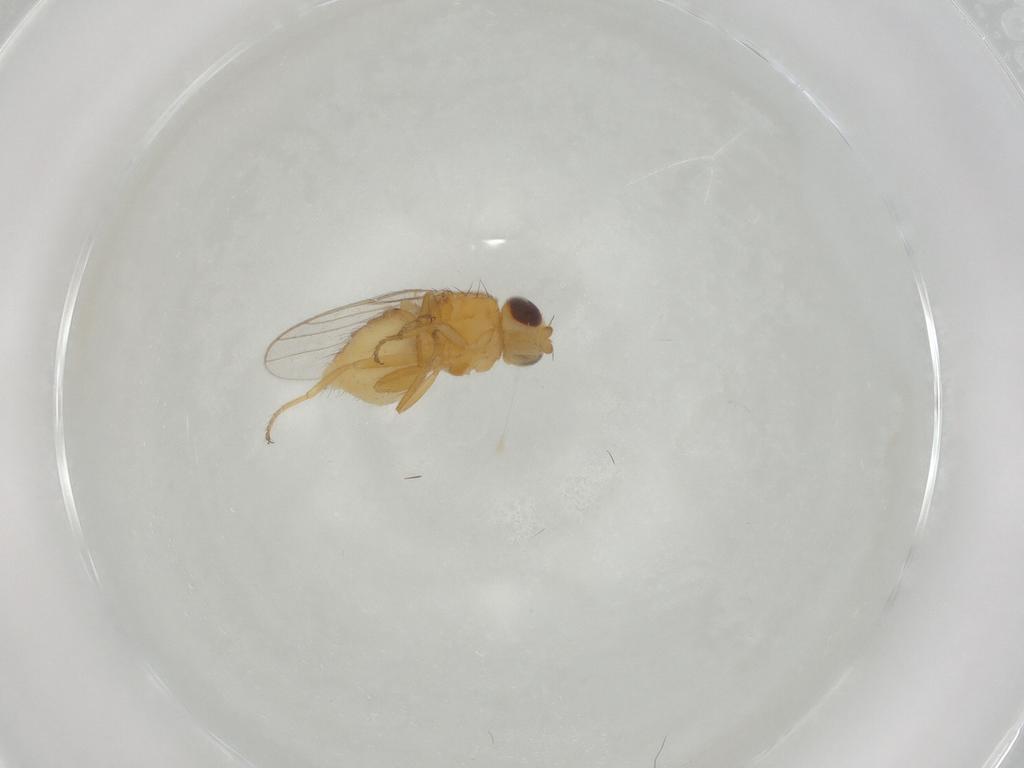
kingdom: Animalia
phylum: Arthropoda
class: Insecta
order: Diptera
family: Chloropidae
